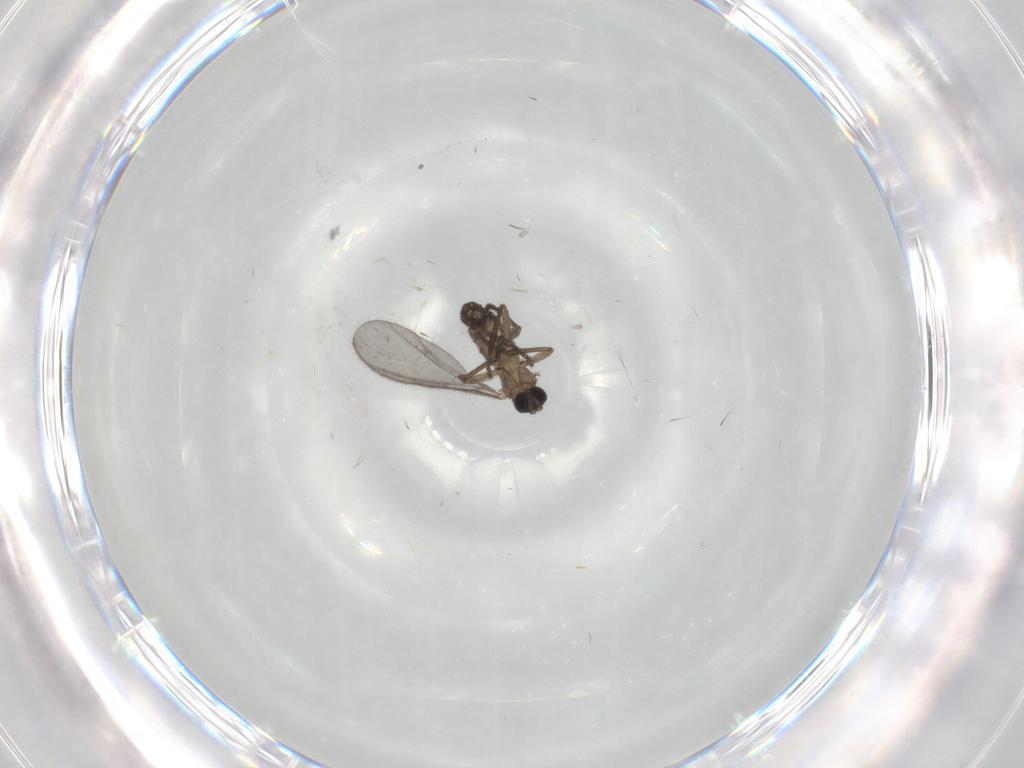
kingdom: Animalia
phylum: Arthropoda
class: Insecta
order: Diptera
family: Sciaridae
